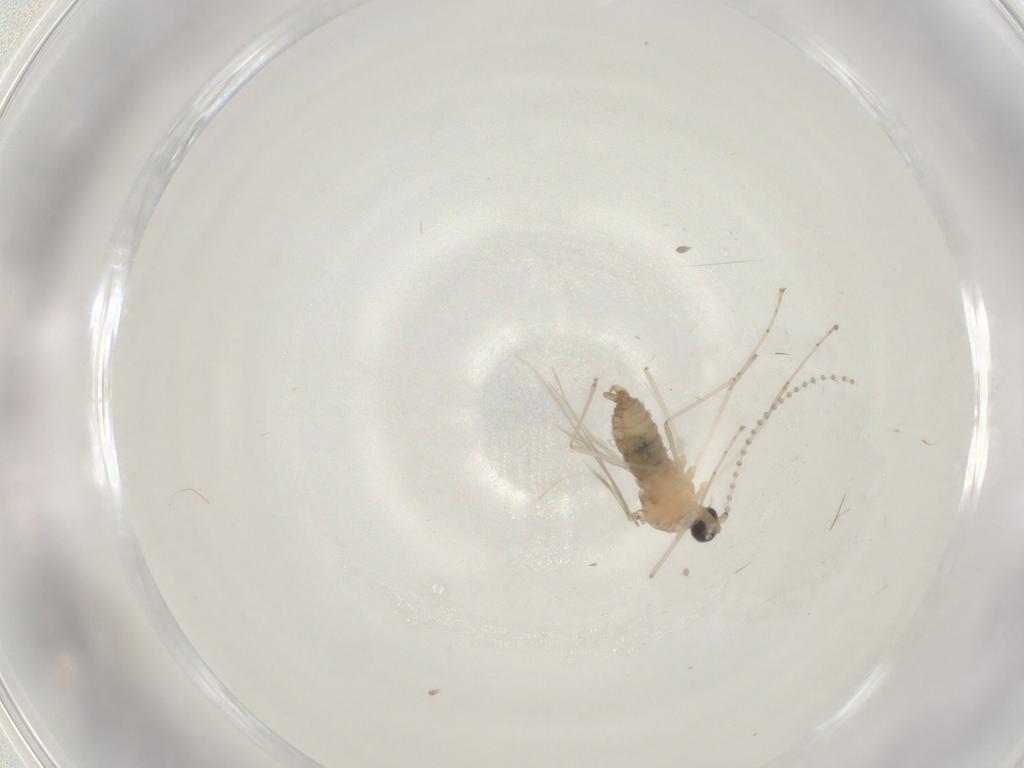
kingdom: Animalia
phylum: Arthropoda
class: Insecta
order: Diptera
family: Cecidomyiidae
